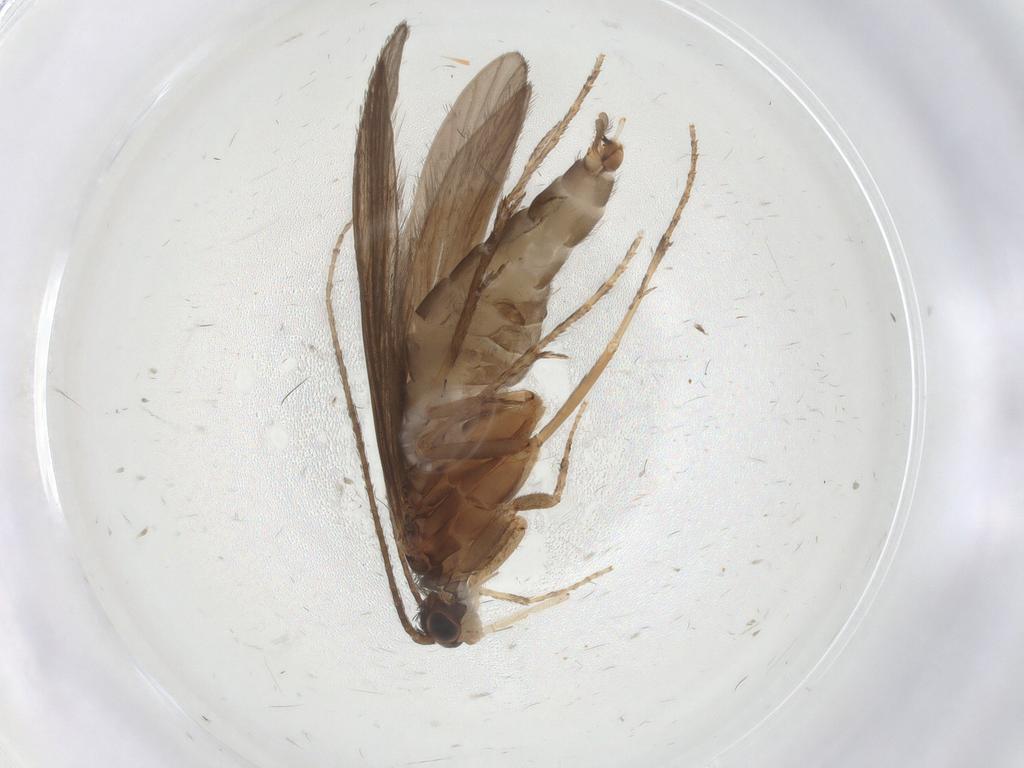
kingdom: Animalia
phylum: Arthropoda
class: Insecta
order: Trichoptera
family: Xiphocentronidae
